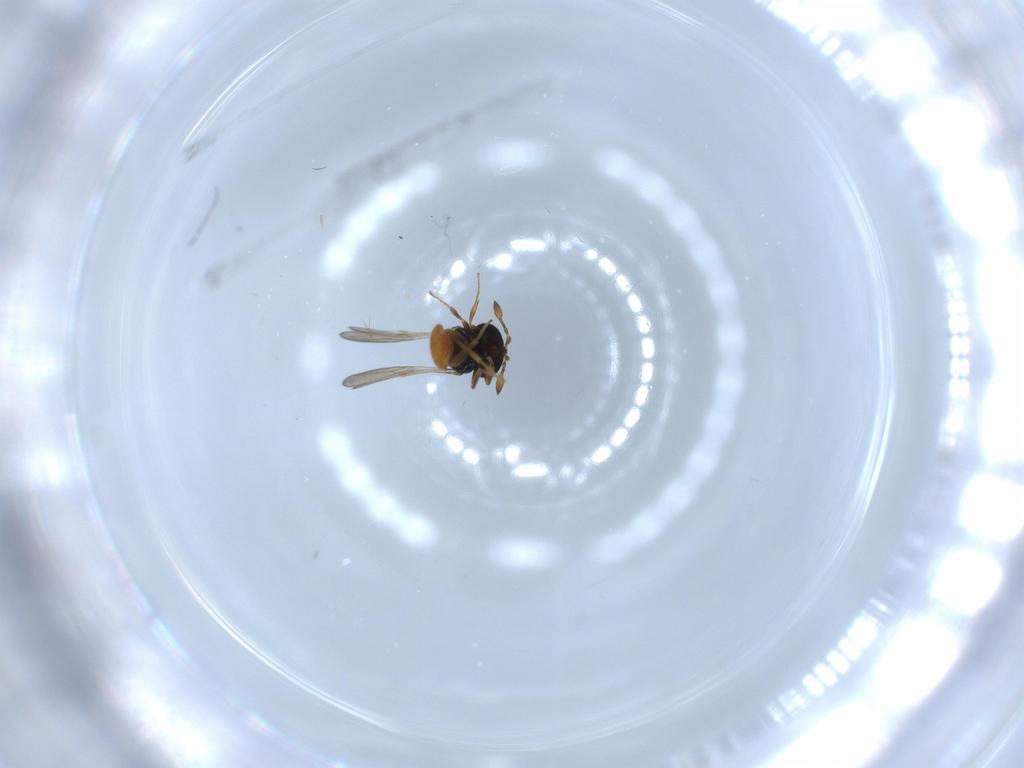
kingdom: Animalia
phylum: Arthropoda
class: Insecta
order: Hymenoptera
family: Scelionidae
